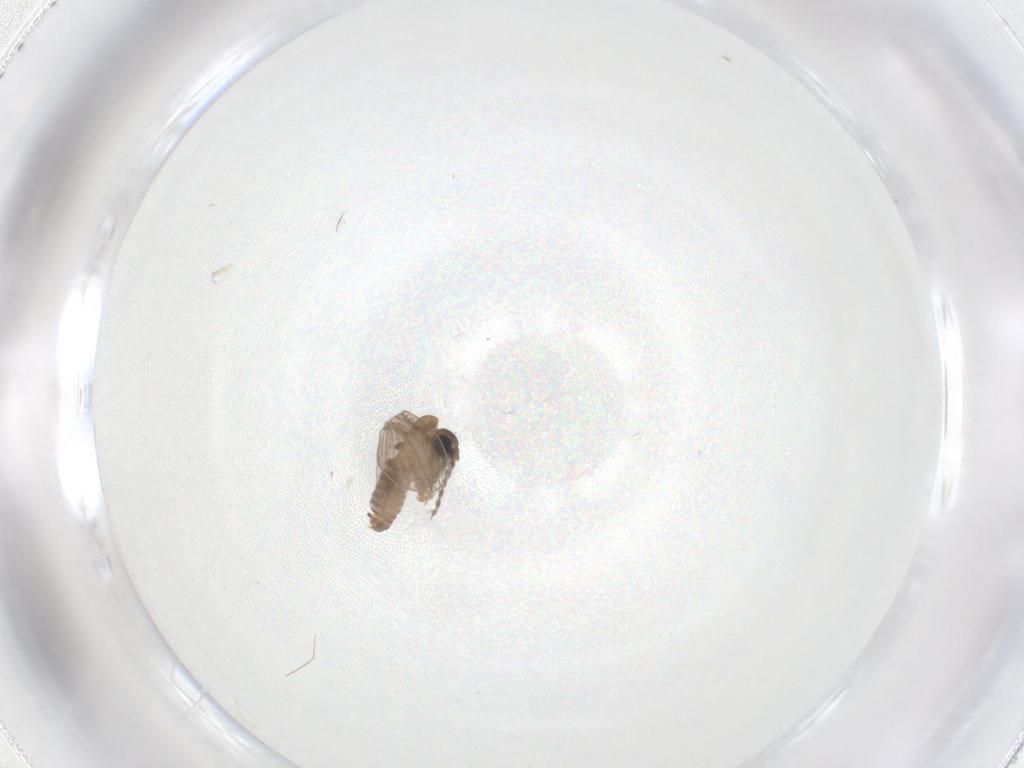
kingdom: Animalia
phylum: Arthropoda
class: Insecta
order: Diptera
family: Psychodidae
